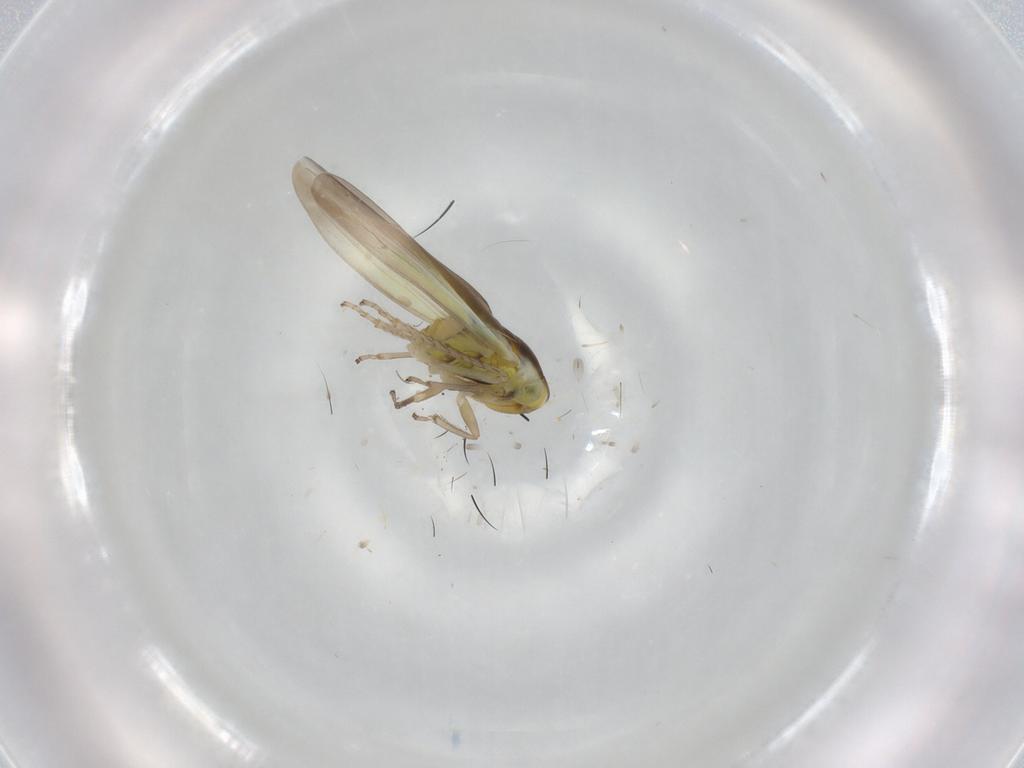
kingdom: Animalia
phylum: Arthropoda
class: Insecta
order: Hemiptera
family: Cicadellidae
